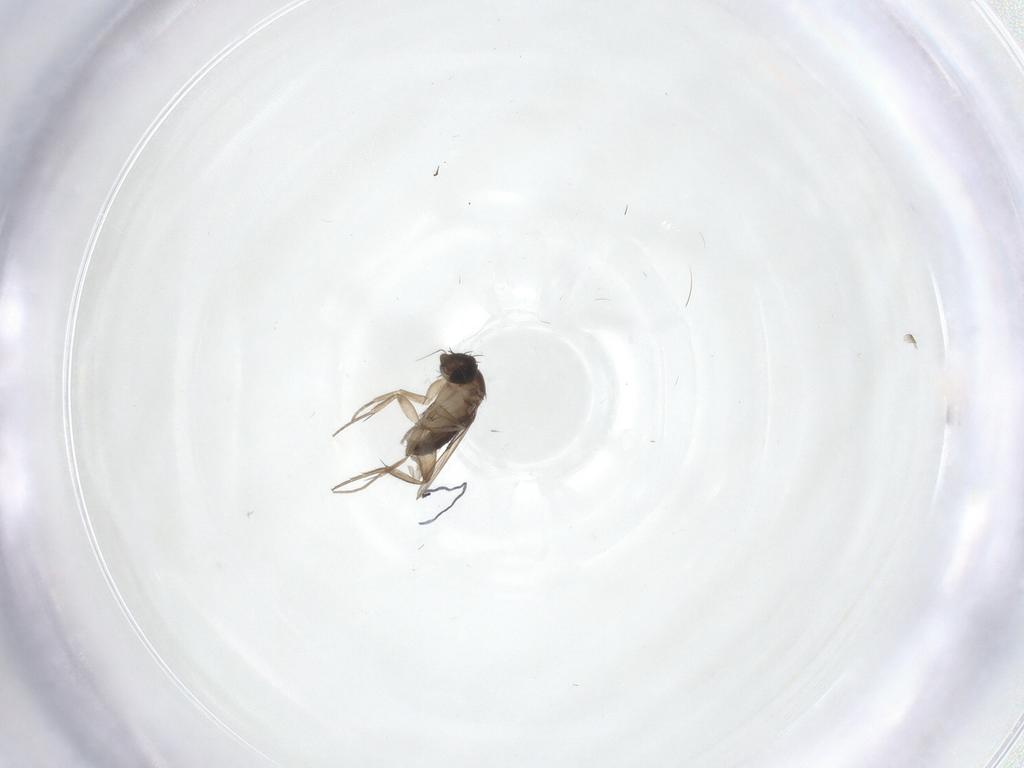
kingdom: Animalia
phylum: Arthropoda
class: Insecta
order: Diptera
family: Phoridae
